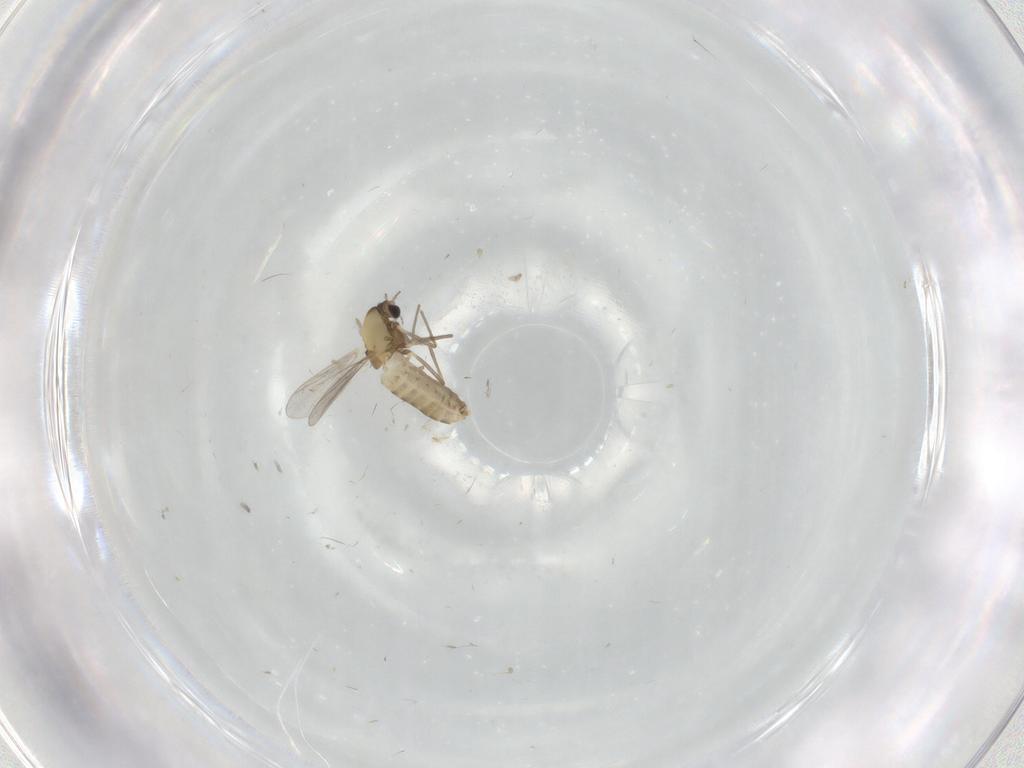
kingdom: Animalia
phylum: Arthropoda
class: Insecta
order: Diptera
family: Chironomidae
